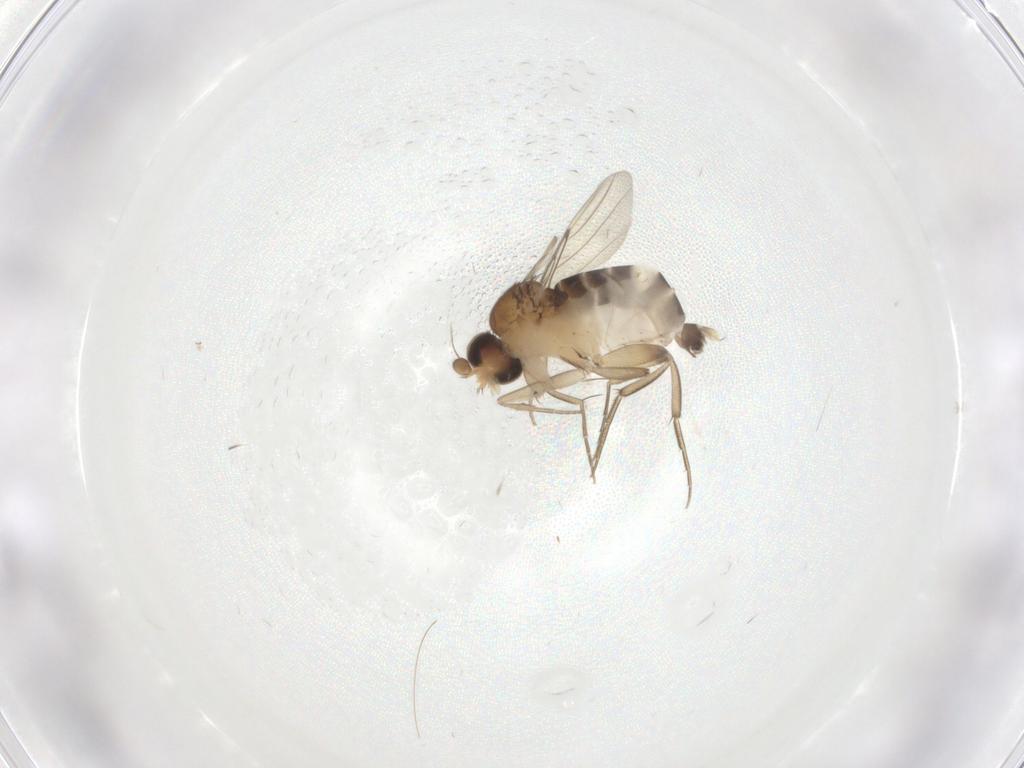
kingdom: Animalia
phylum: Arthropoda
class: Insecta
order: Diptera
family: Phoridae
